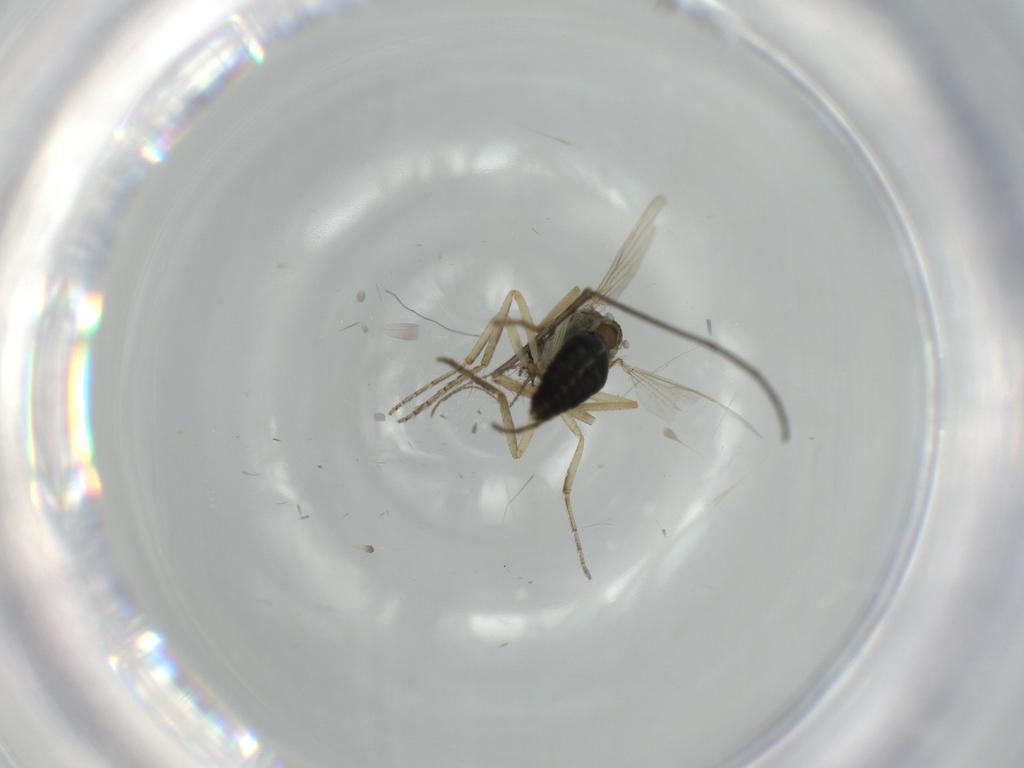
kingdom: Animalia
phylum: Arthropoda
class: Insecta
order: Diptera
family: Ceratopogonidae
